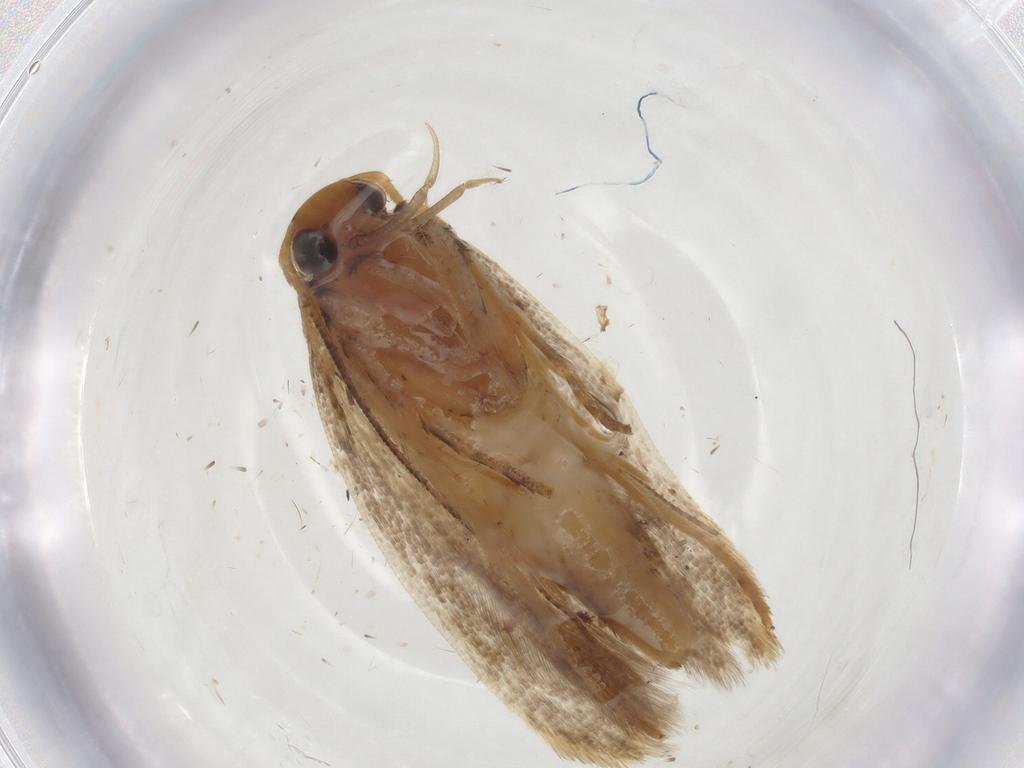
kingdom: Animalia
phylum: Arthropoda
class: Insecta
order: Lepidoptera
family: Gelechiidae
